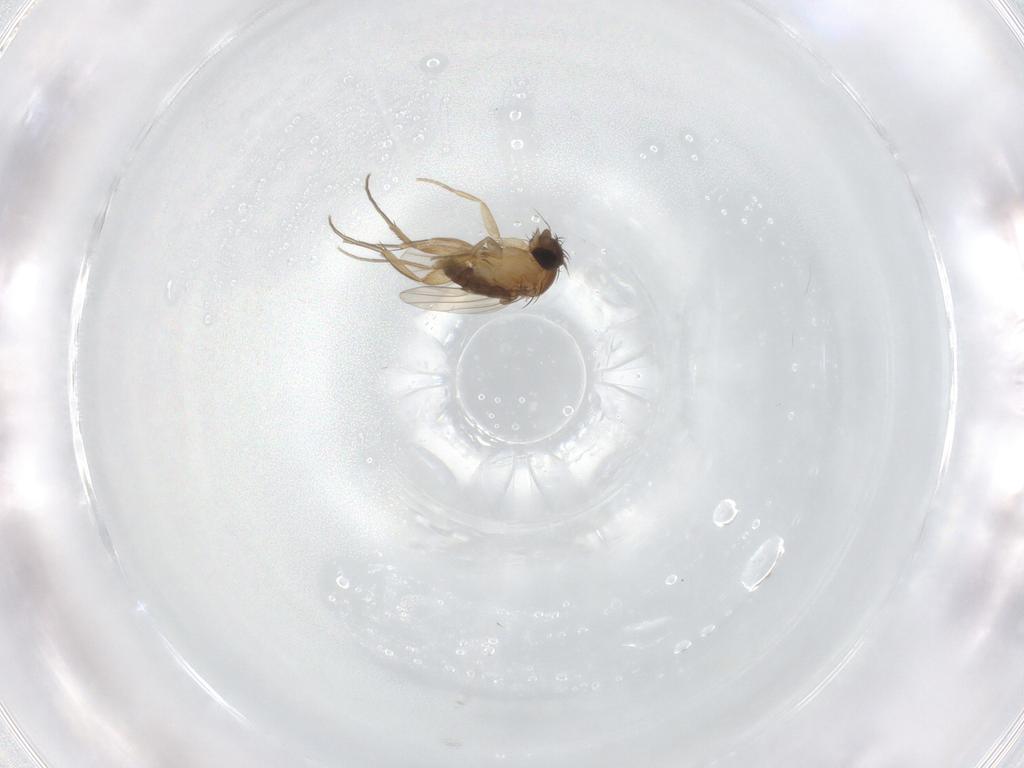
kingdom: Animalia
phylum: Arthropoda
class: Insecta
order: Diptera
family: Phoridae
